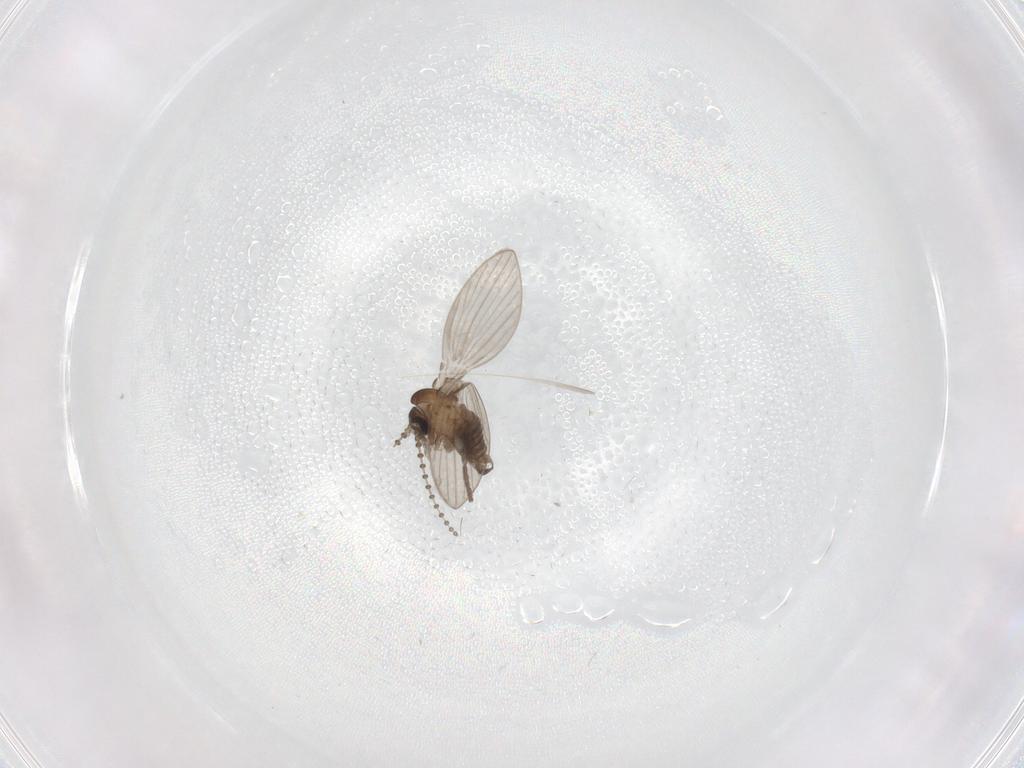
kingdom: Animalia
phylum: Arthropoda
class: Insecta
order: Diptera
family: Psychodidae
